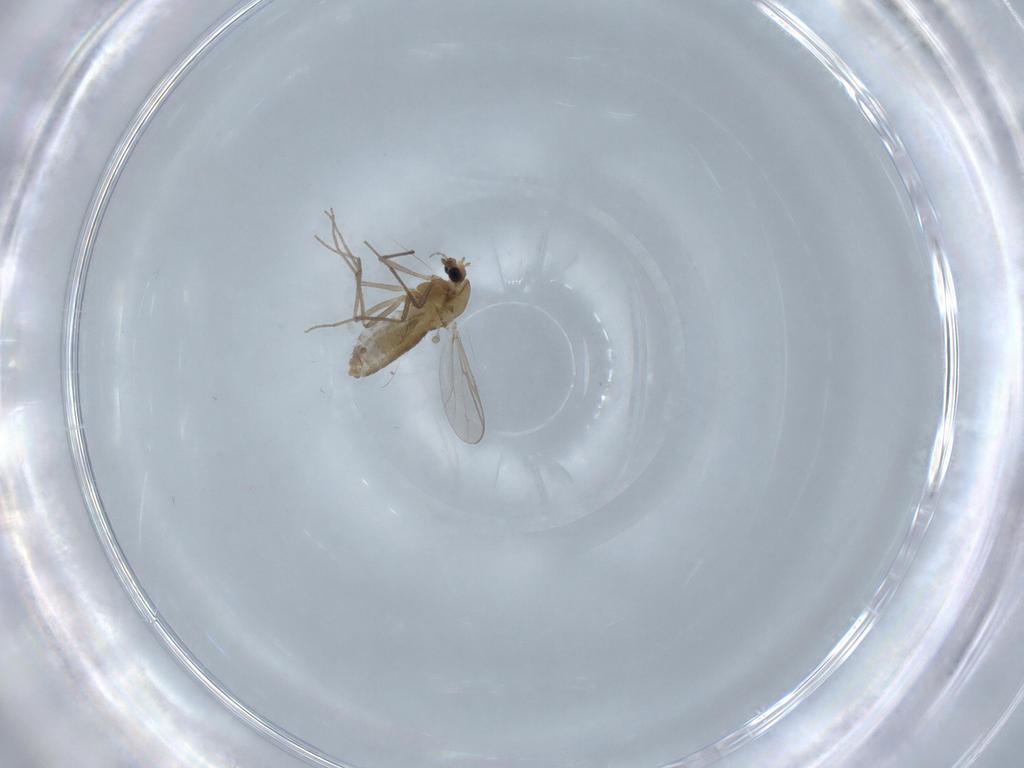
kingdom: Animalia
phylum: Arthropoda
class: Insecta
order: Diptera
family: Chironomidae
